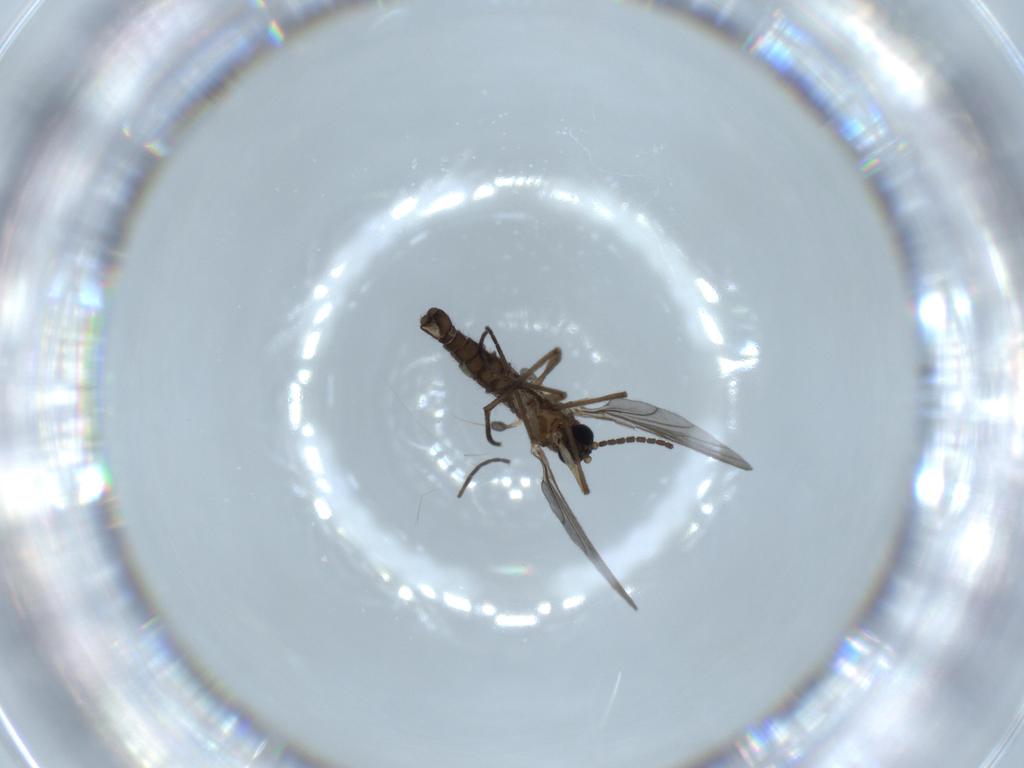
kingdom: Animalia
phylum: Arthropoda
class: Insecta
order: Diptera
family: Sciaridae
